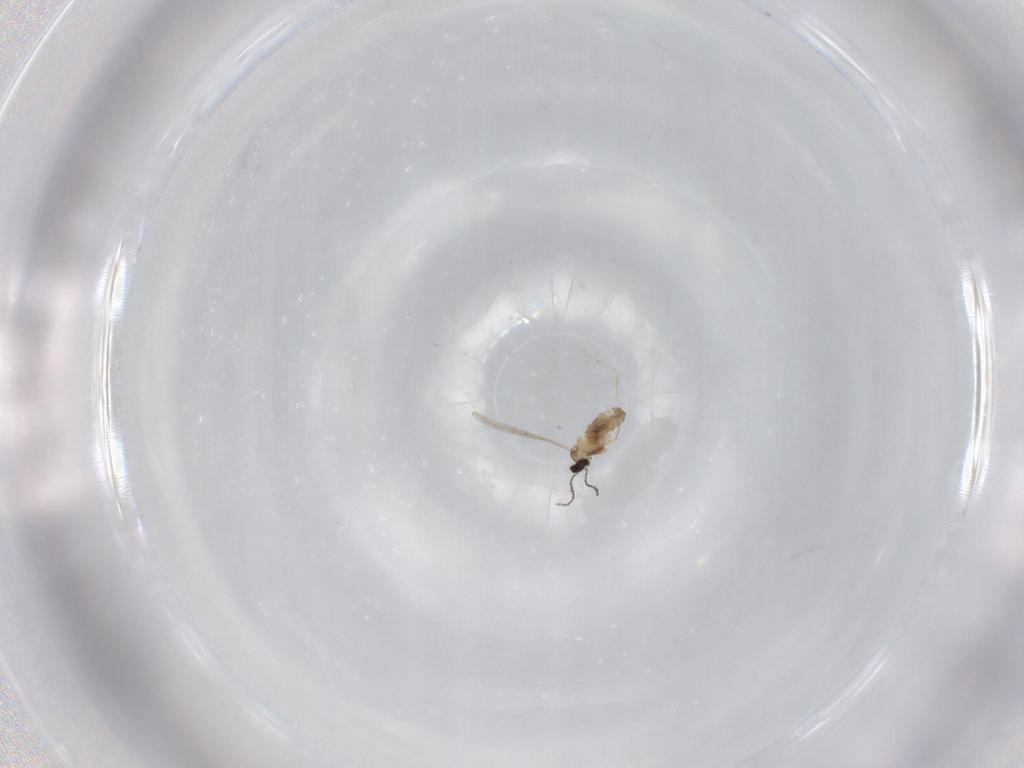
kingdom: Animalia
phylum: Arthropoda
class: Insecta
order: Diptera
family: Cecidomyiidae
